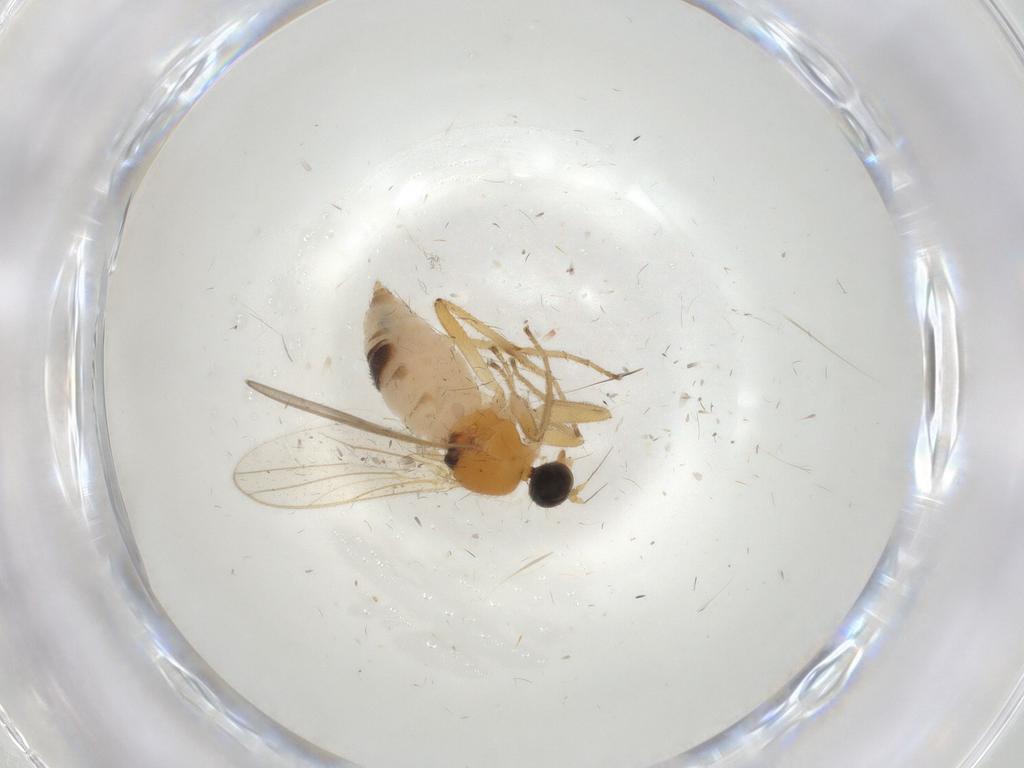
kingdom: Animalia
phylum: Arthropoda
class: Insecta
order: Diptera
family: Hybotidae
